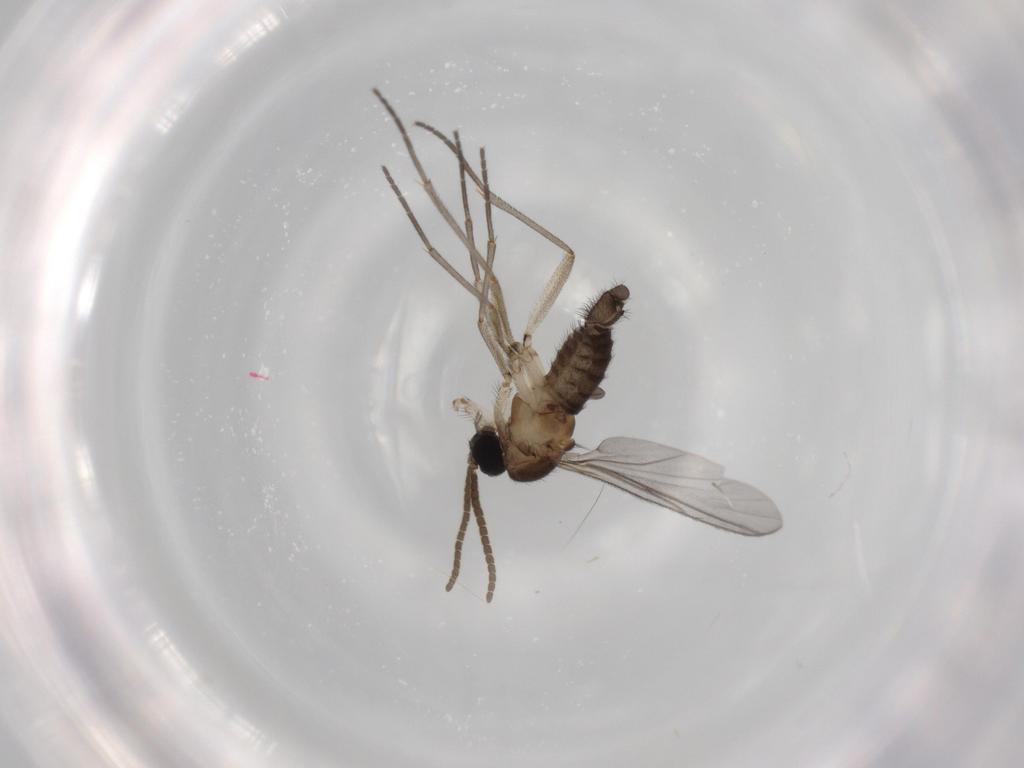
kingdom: Animalia
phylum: Arthropoda
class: Insecta
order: Diptera
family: Sciaridae
